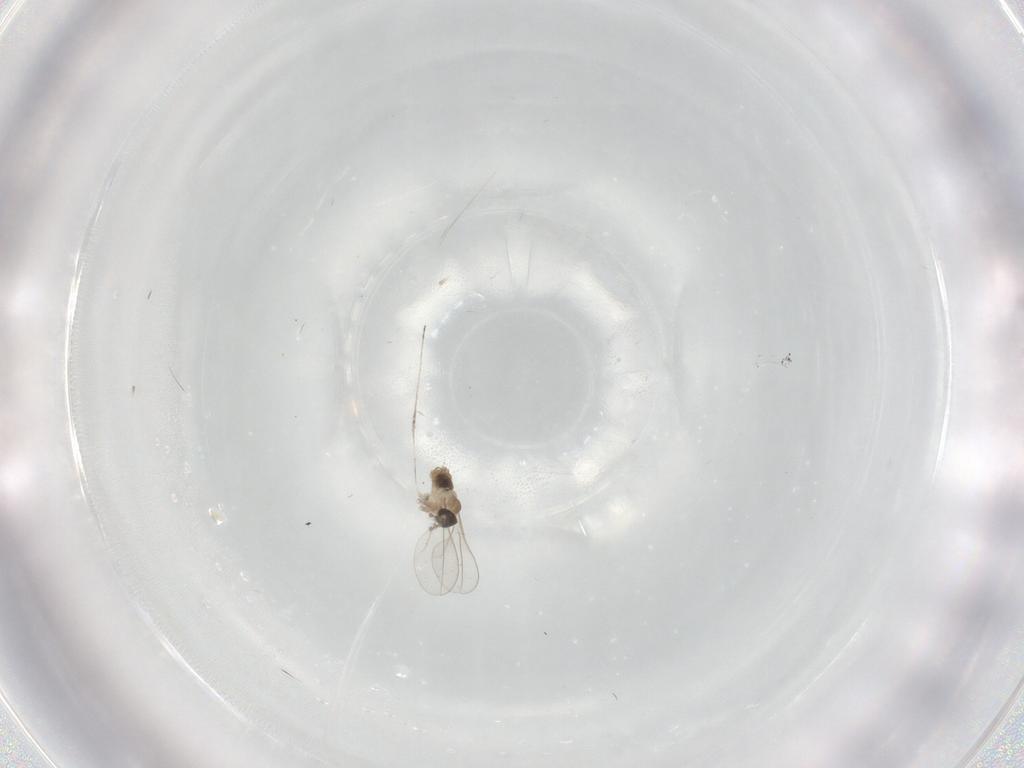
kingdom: Animalia
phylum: Arthropoda
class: Insecta
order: Diptera
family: Cecidomyiidae
